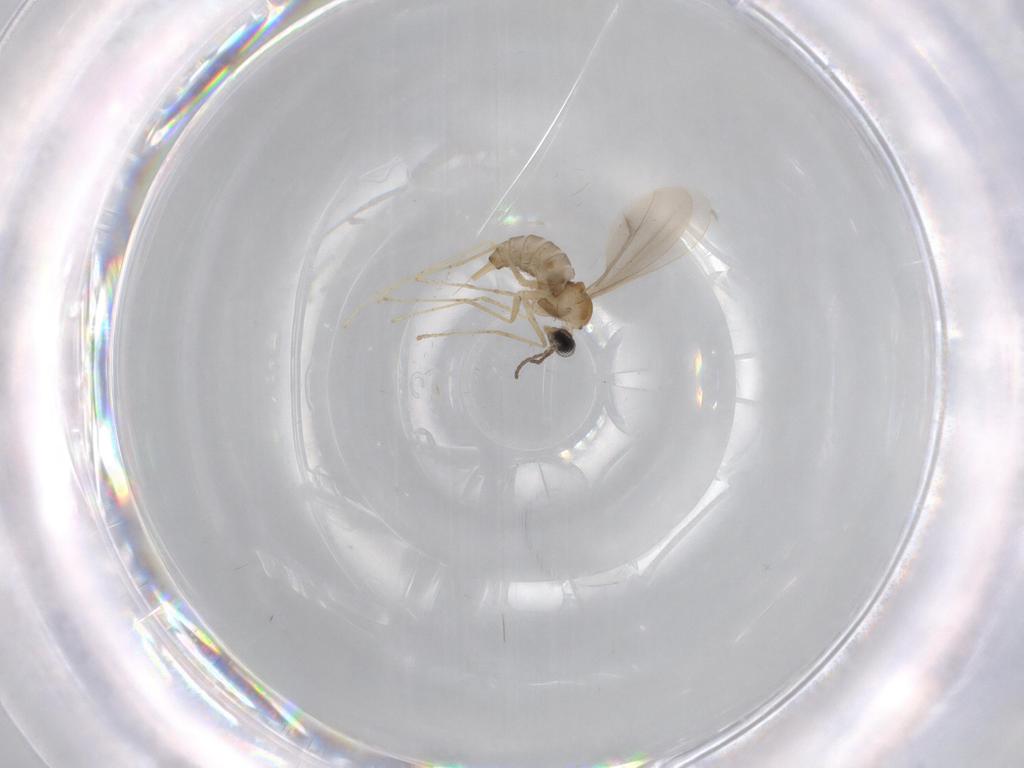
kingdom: Animalia
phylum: Arthropoda
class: Insecta
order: Diptera
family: Cecidomyiidae
